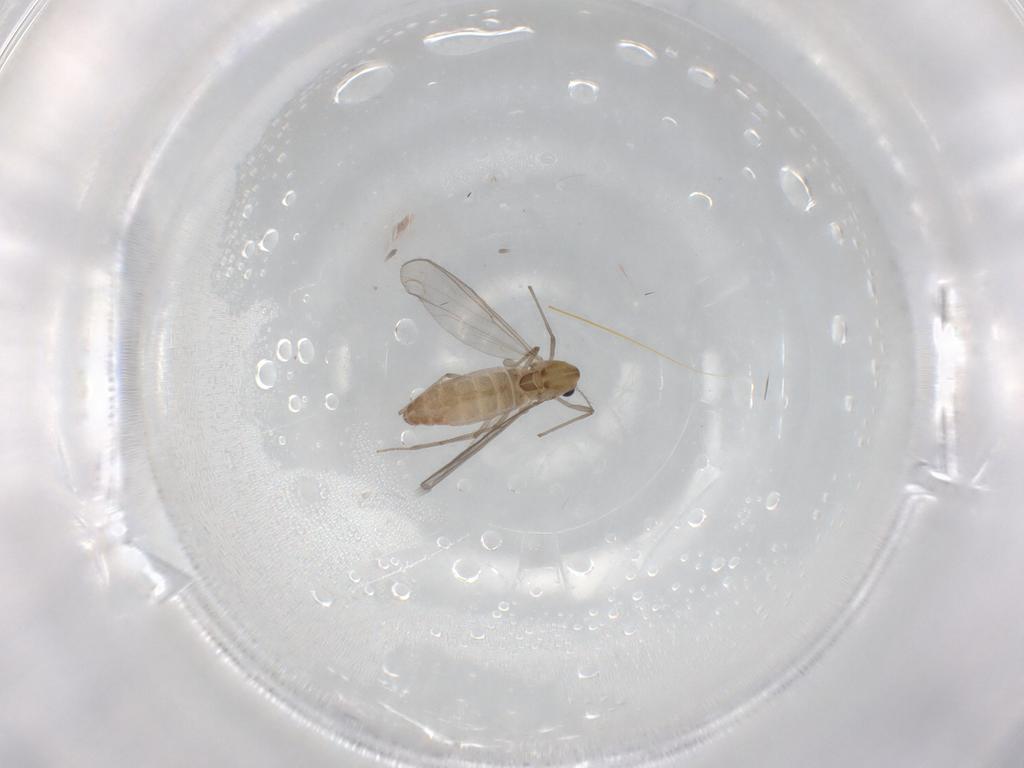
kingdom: Animalia
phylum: Arthropoda
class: Insecta
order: Diptera
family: Chironomidae
